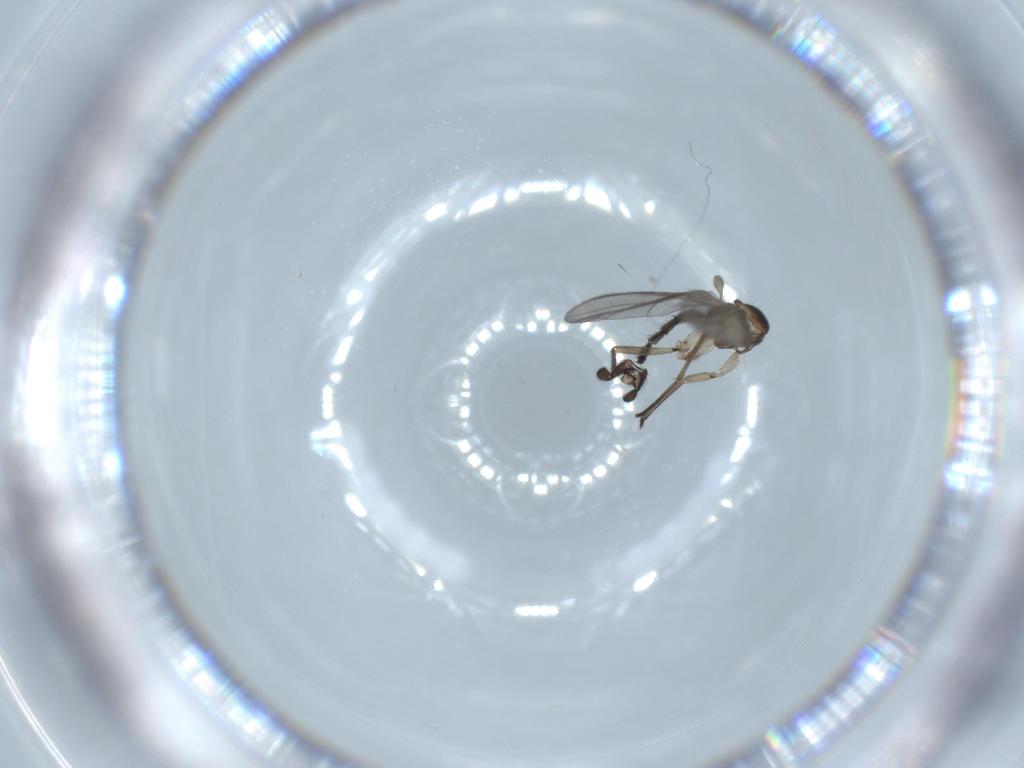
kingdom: Animalia
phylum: Arthropoda
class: Insecta
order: Diptera
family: Sciaridae
